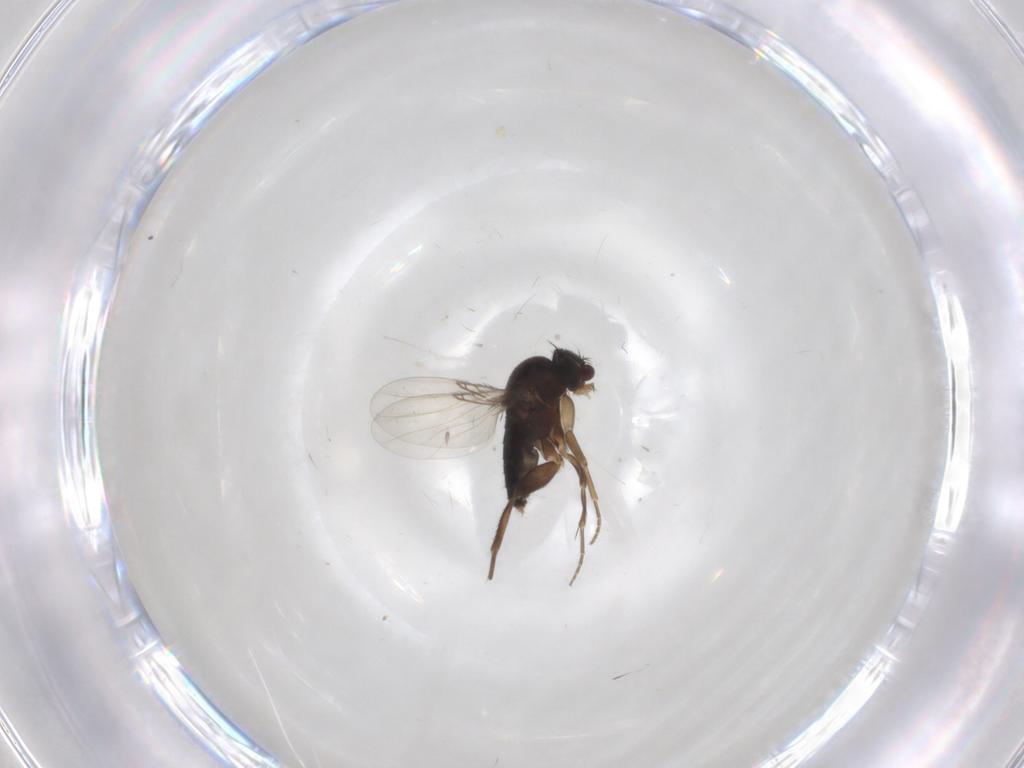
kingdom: Animalia
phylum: Arthropoda
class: Insecta
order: Diptera
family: Phoridae
